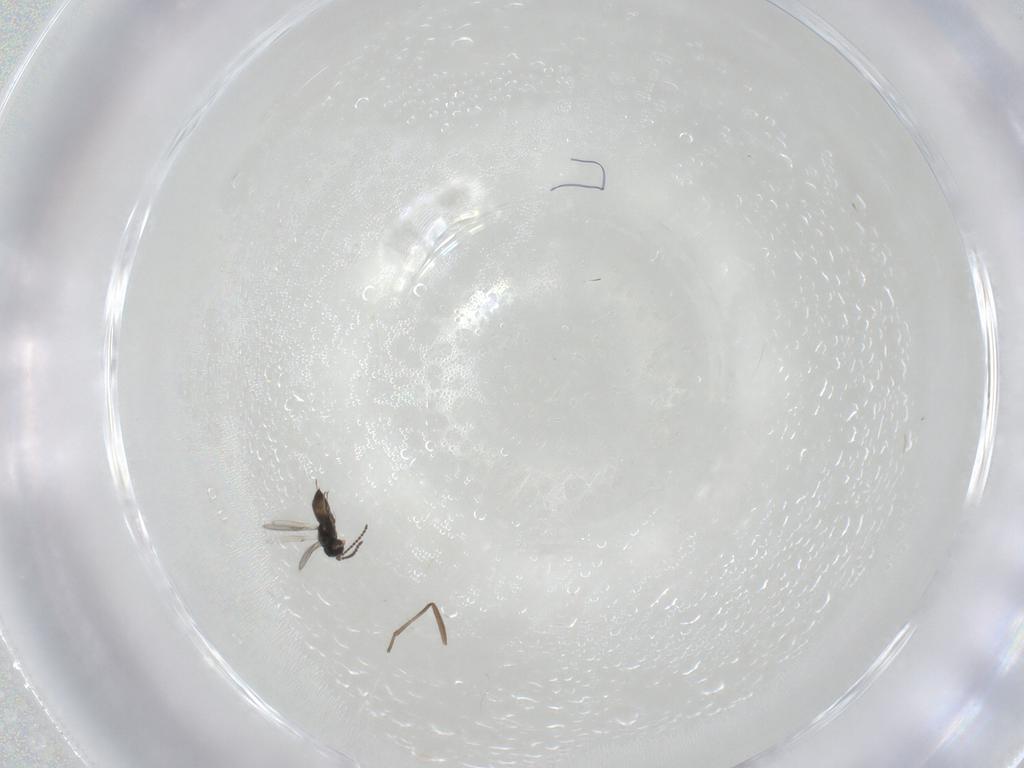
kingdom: Animalia
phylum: Arthropoda
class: Insecta
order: Hymenoptera
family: Scelionidae
